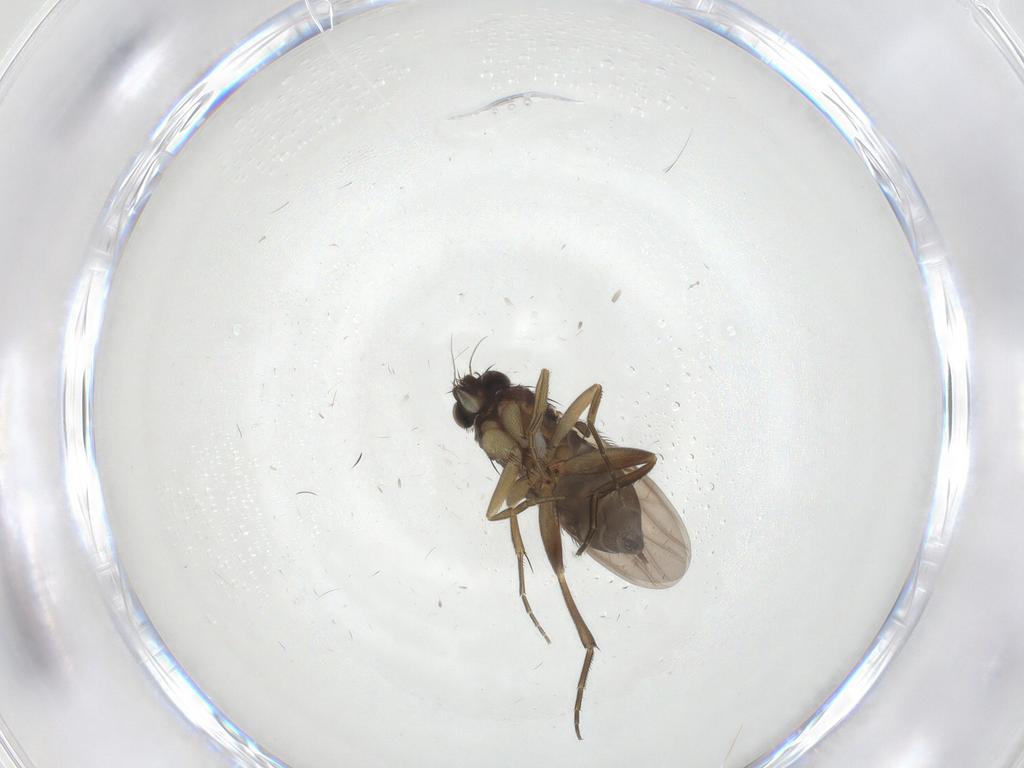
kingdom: Animalia
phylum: Arthropoda
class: Insecta
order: Diptera
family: Phoridae
